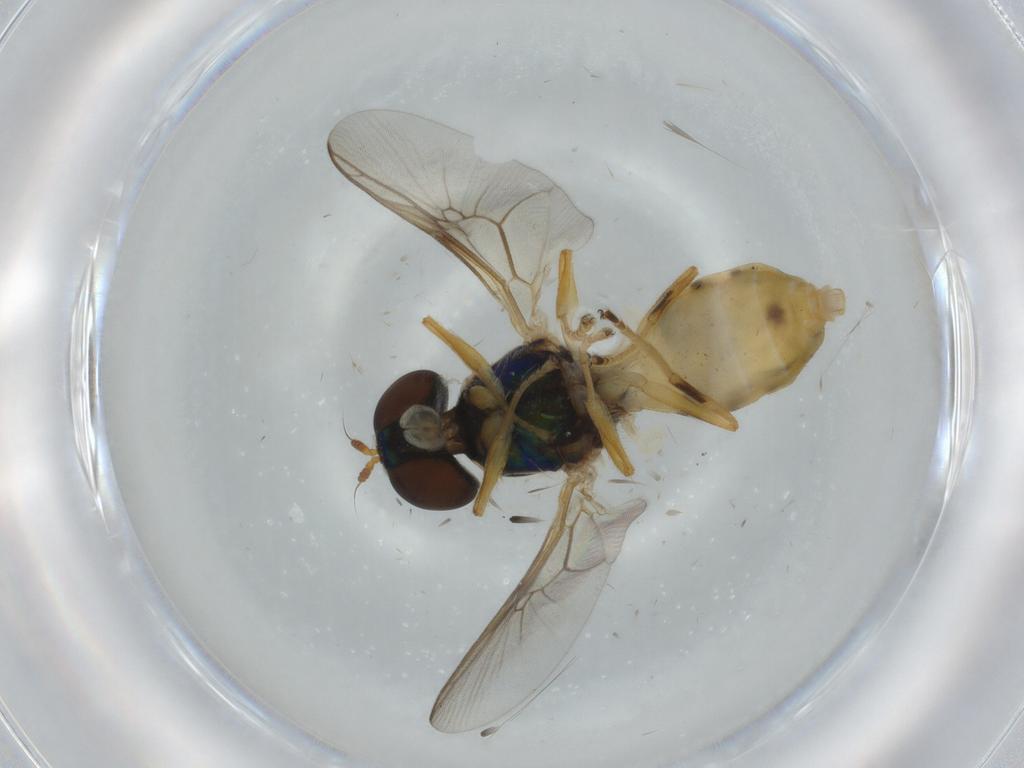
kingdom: Animalia
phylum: Arthropoda
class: Insecta
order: Diptera
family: Sciaridae
